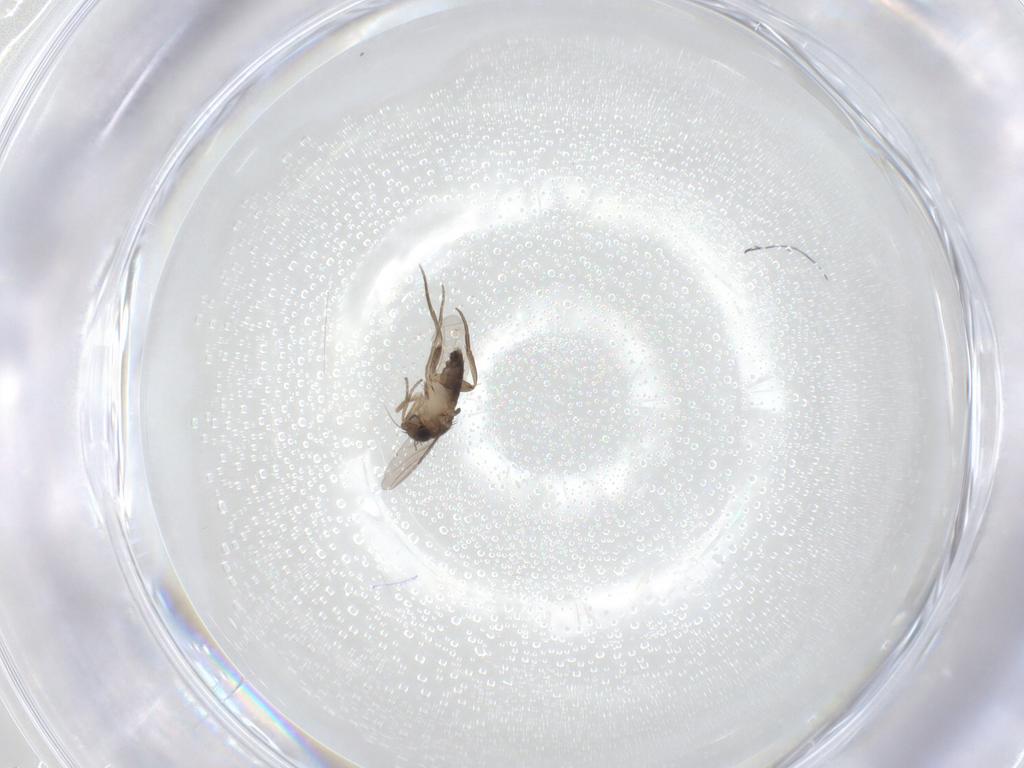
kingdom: Animalia
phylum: Arthropoda
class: Insecta
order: Diptera
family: Phoridae
